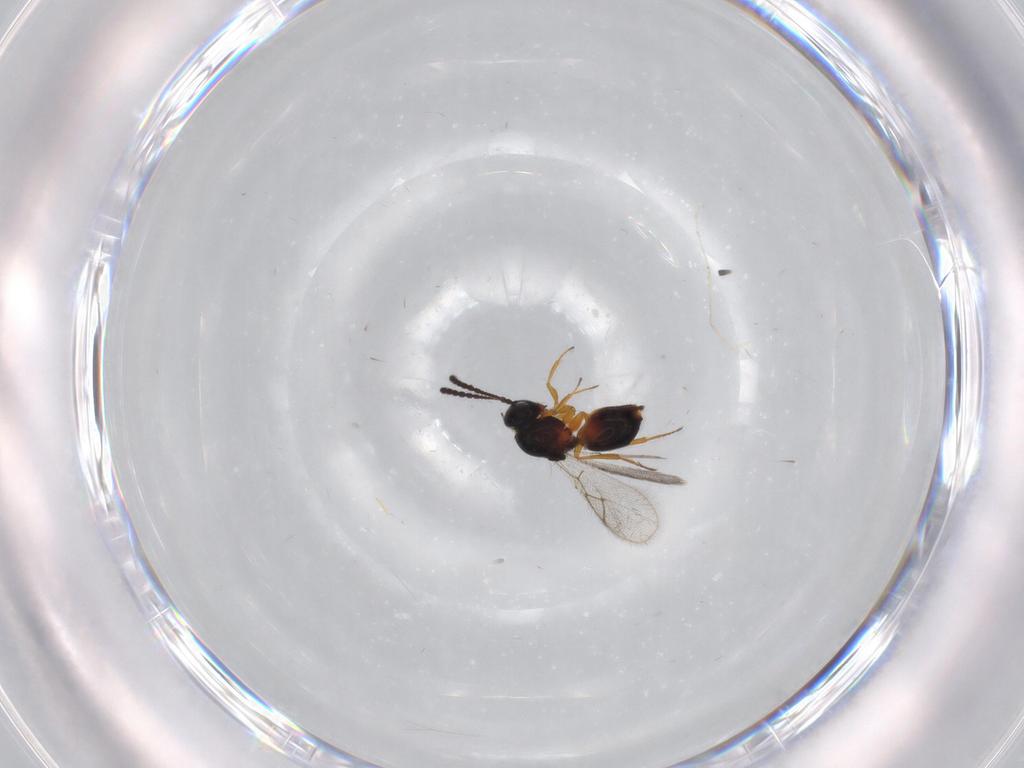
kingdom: Animalia
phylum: Arthropoda
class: Insecta
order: Hymenoptera
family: Figitidae
